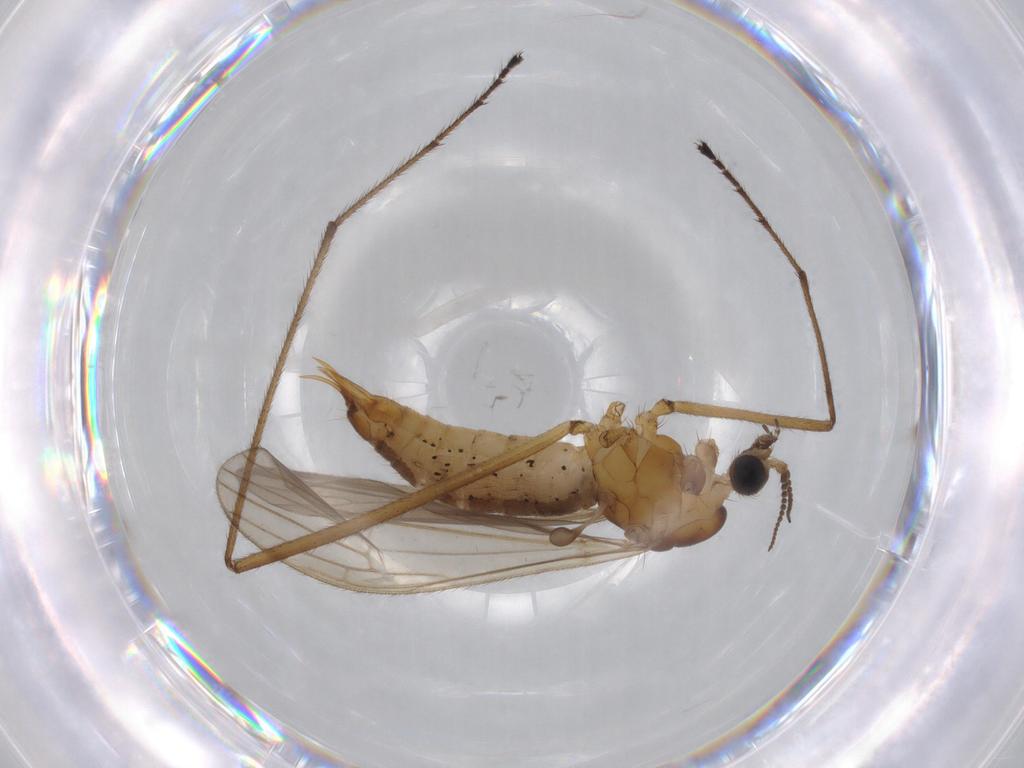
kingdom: Animalia
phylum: Arthropoda
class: Insecta
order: Diptera
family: Limoniidae
